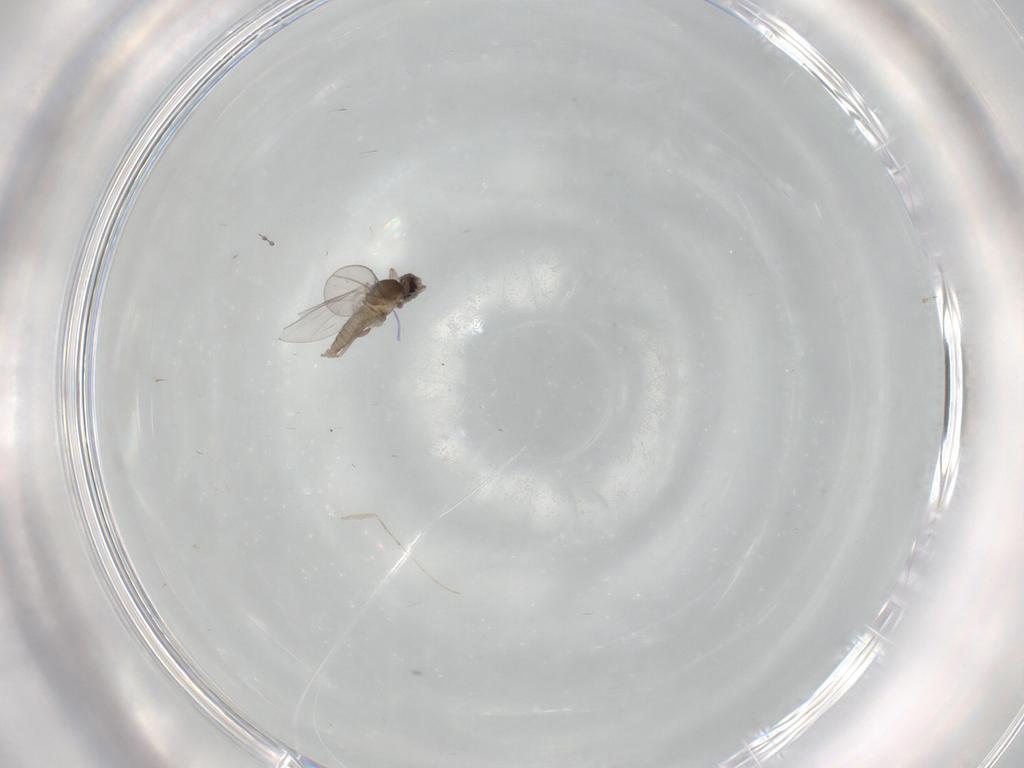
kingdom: Animalia
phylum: Arthropoda
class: Insecta
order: Diptera
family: Cecidomyiidae
